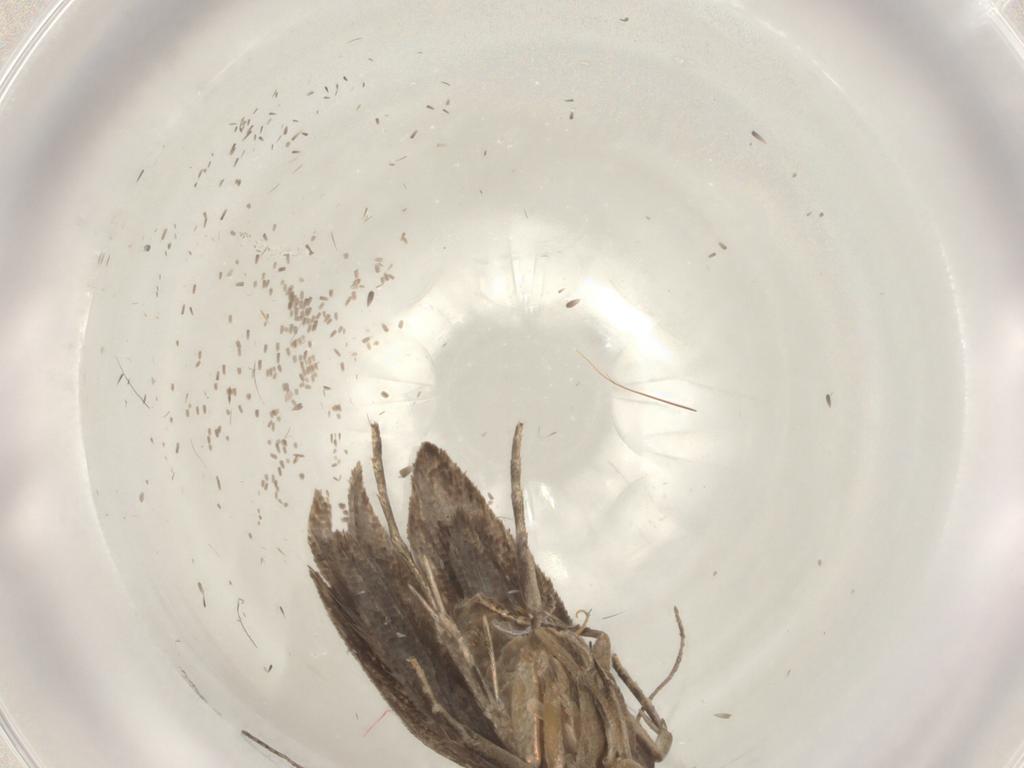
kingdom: Animalia
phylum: Arthropoda
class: Insecta
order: Lepidoptera
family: Gelechiidae
